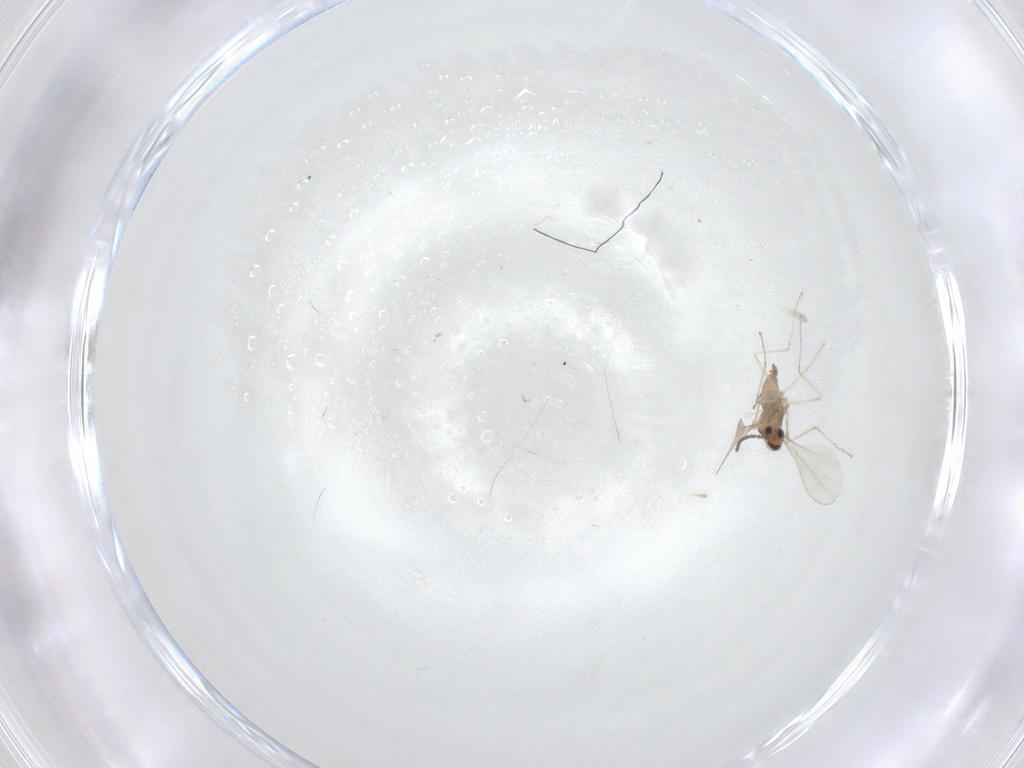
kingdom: Animalia
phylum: Arthropoda
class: Insecta
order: Diptera
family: Cecidomyiidae
